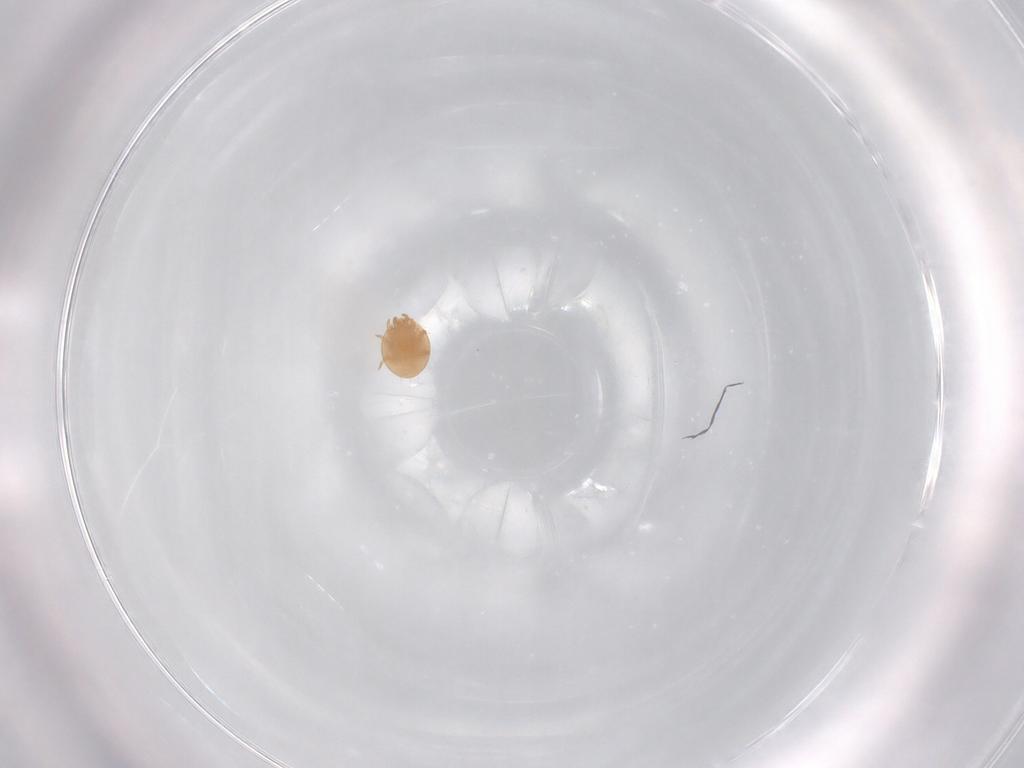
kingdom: Animalia
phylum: Arthropoda
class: Arachnida
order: Mesostigmata
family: Trematuridae
